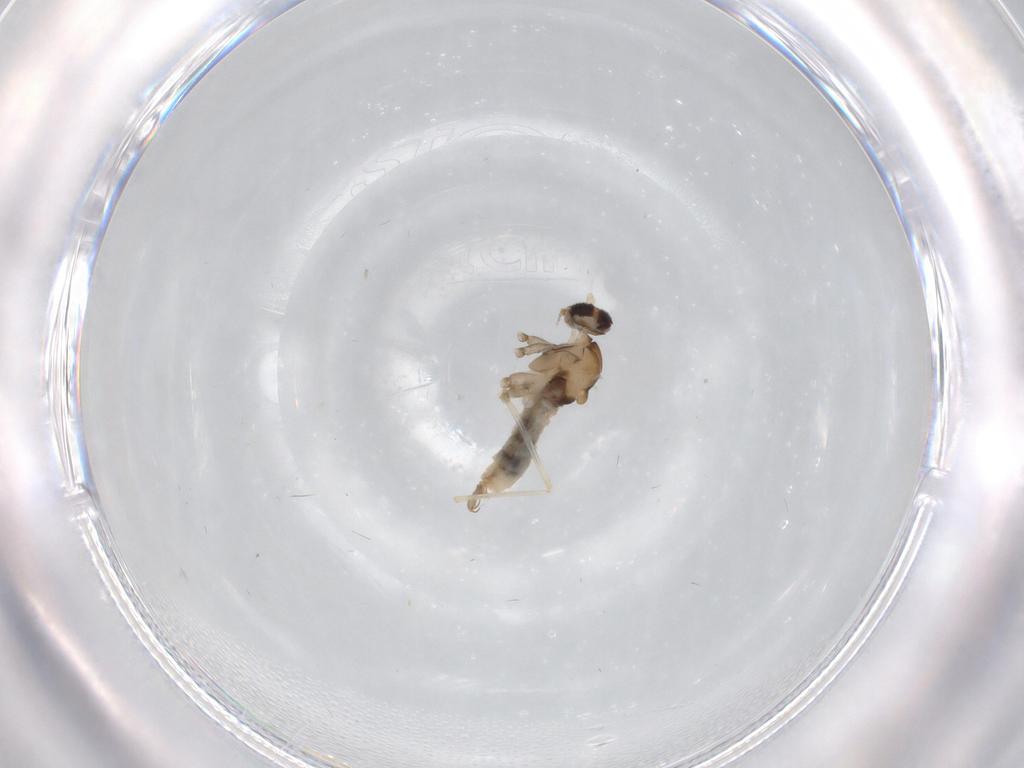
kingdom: Animalia
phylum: Arthropoda
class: Insecta
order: Diptera
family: Cecidomyiidae
